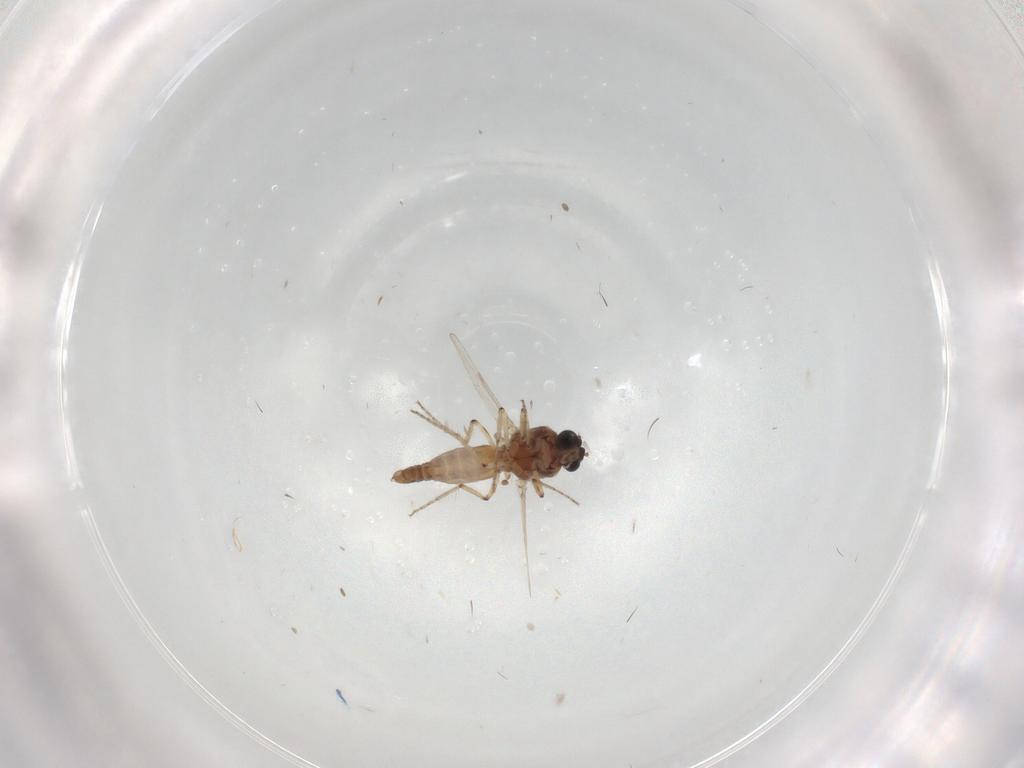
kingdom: Animalia
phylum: Arthropoda
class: Insecta
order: Diptera
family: Ceratopogonidae
